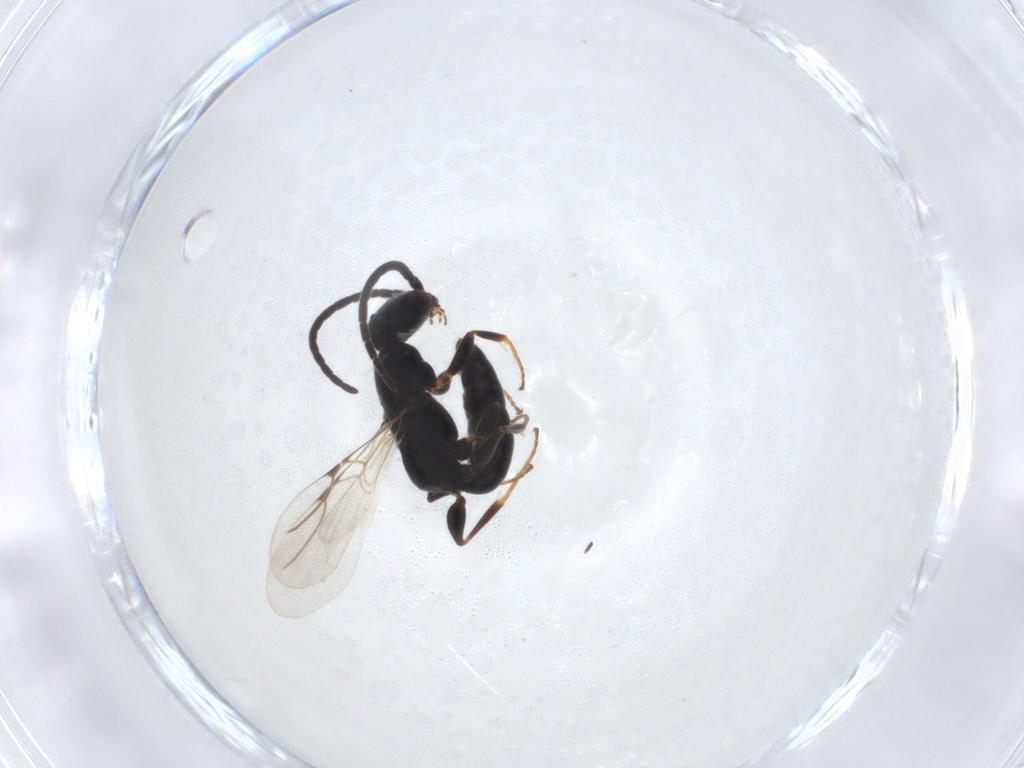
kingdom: Animalia
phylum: Arthropoda
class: Insecta
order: Hymenoptera
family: Bethylidae
